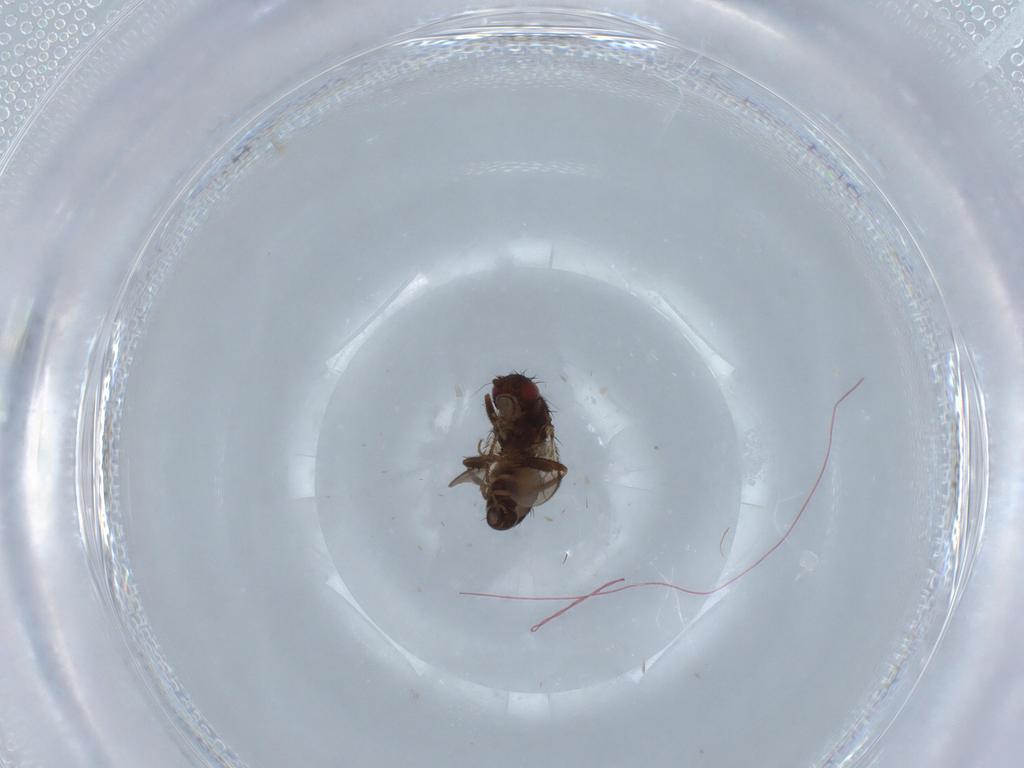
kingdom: Animalia
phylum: Arthropoda
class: Insecta
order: Diptera
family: Sphaeroceridae
